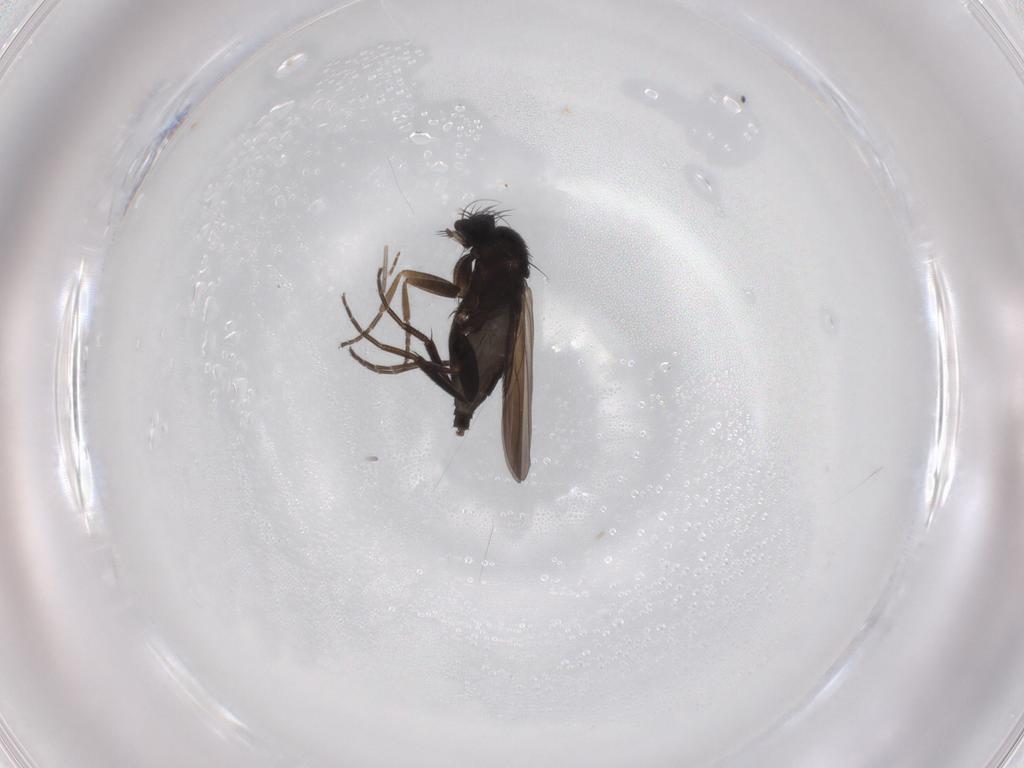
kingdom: Animalia
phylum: Arthropoda
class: Insecta
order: Diptera
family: Phoridae
